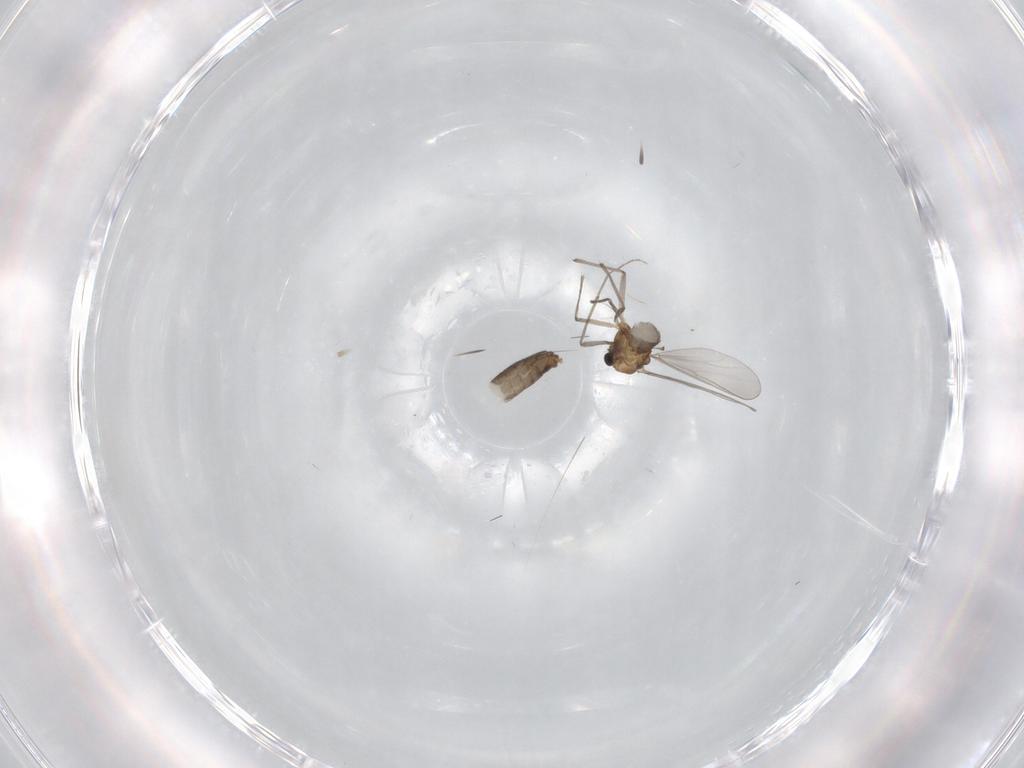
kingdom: Animalia
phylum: Arthropoda
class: Insecta
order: Diptera
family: Chironomidae
